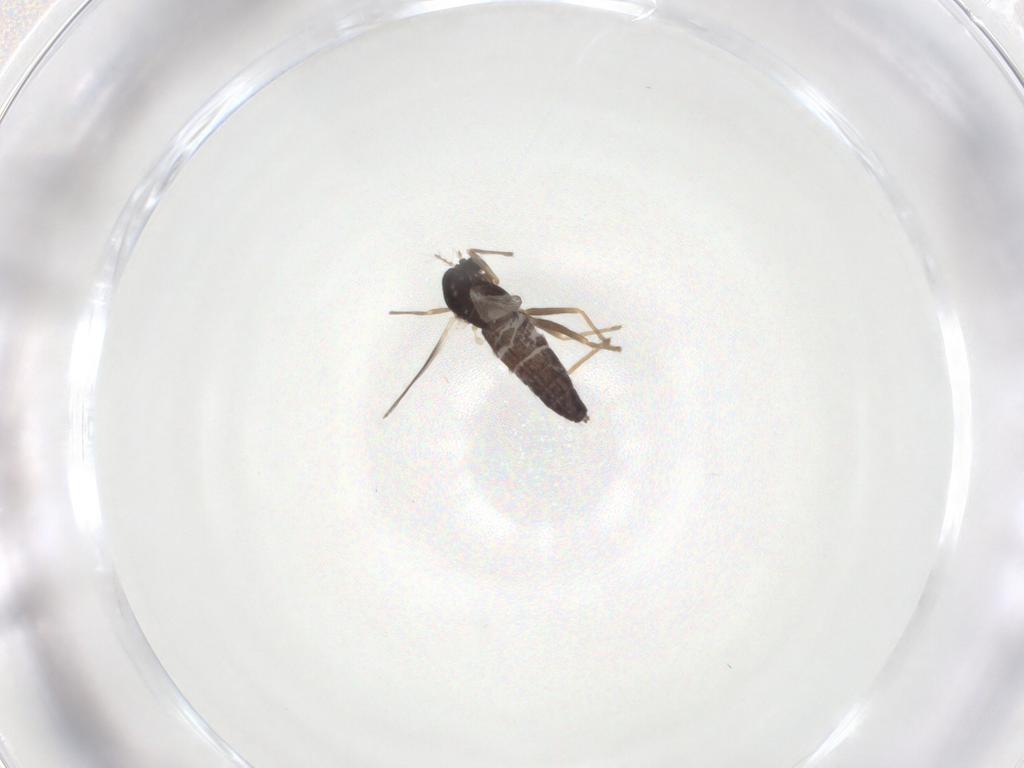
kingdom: Animalia
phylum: Arthropoda
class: Insecta
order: Diptera
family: Chironomidae
